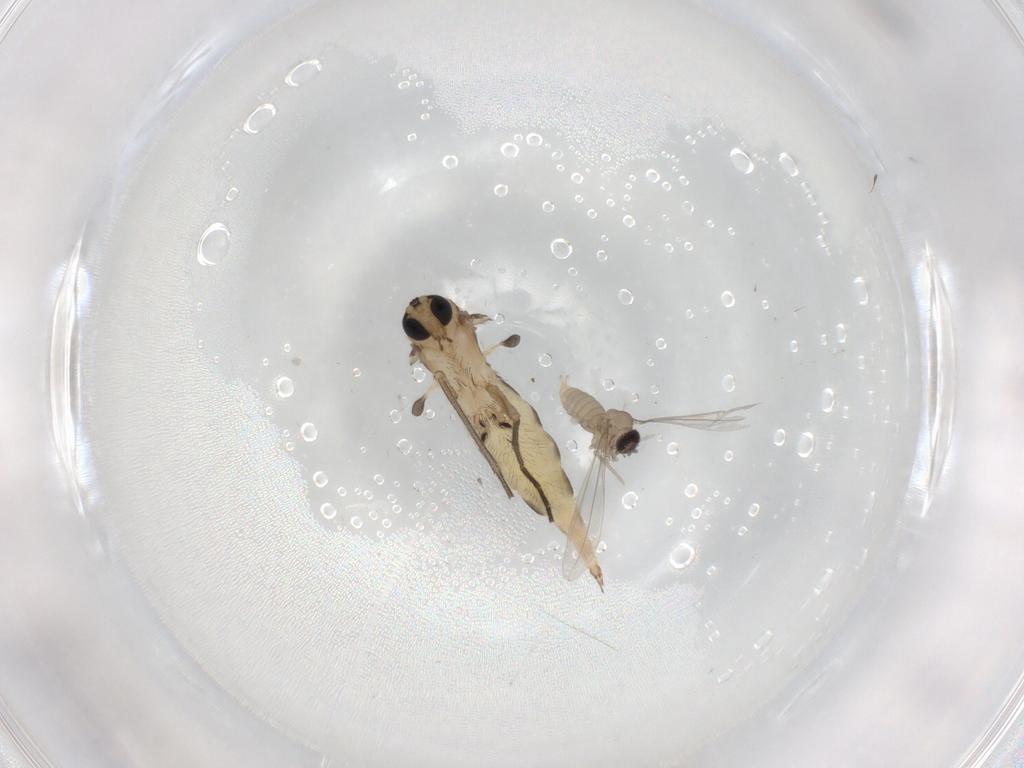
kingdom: Animalia
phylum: Arthropoda
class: Insecta
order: Diptera
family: Sciaridae
